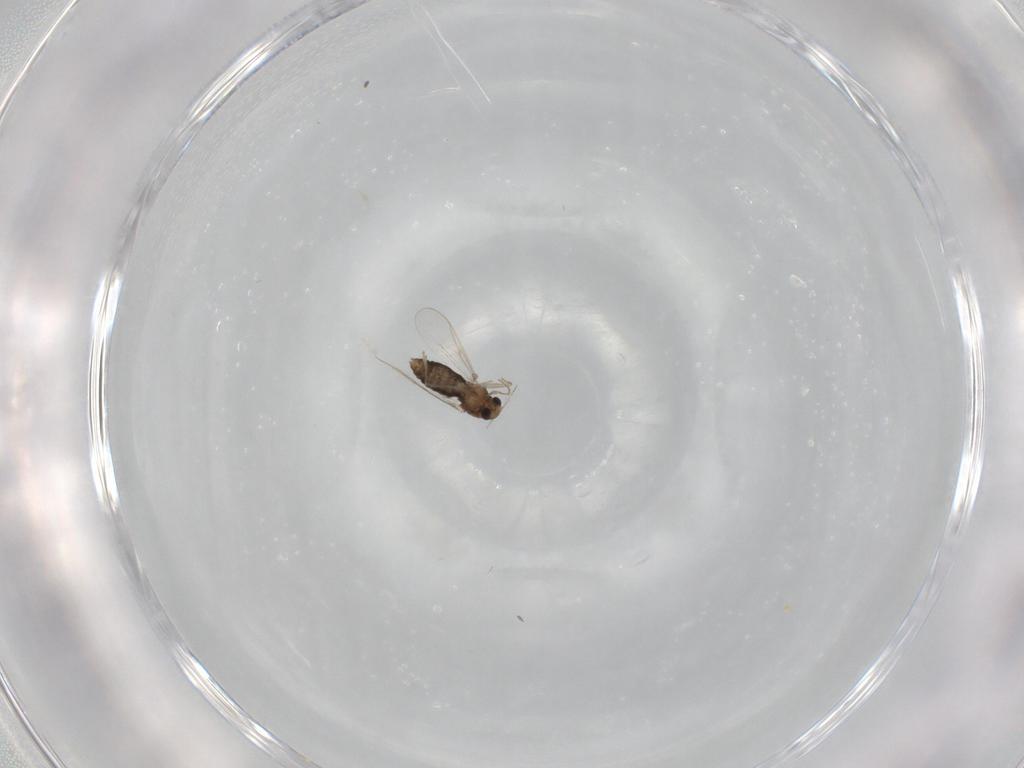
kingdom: Animalia
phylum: Arthropoda
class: Insecta
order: Diptera
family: Chironomidae
